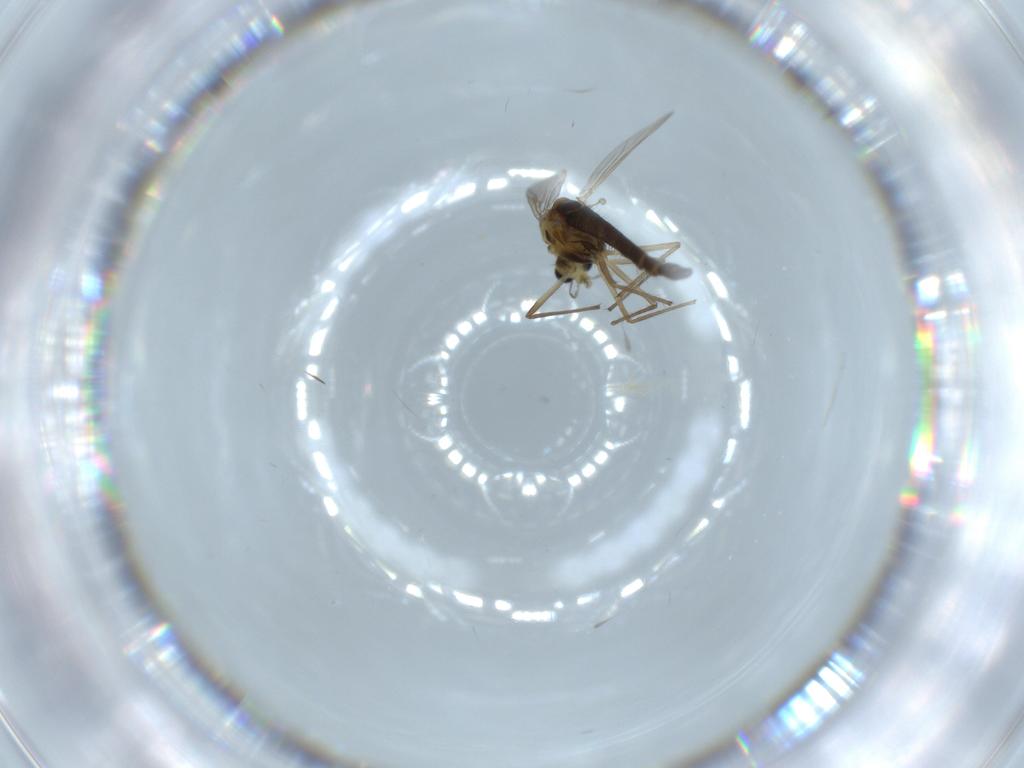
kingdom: Animalia
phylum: Arthropoda
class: Insecta
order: Diptera
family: Chironomidae
